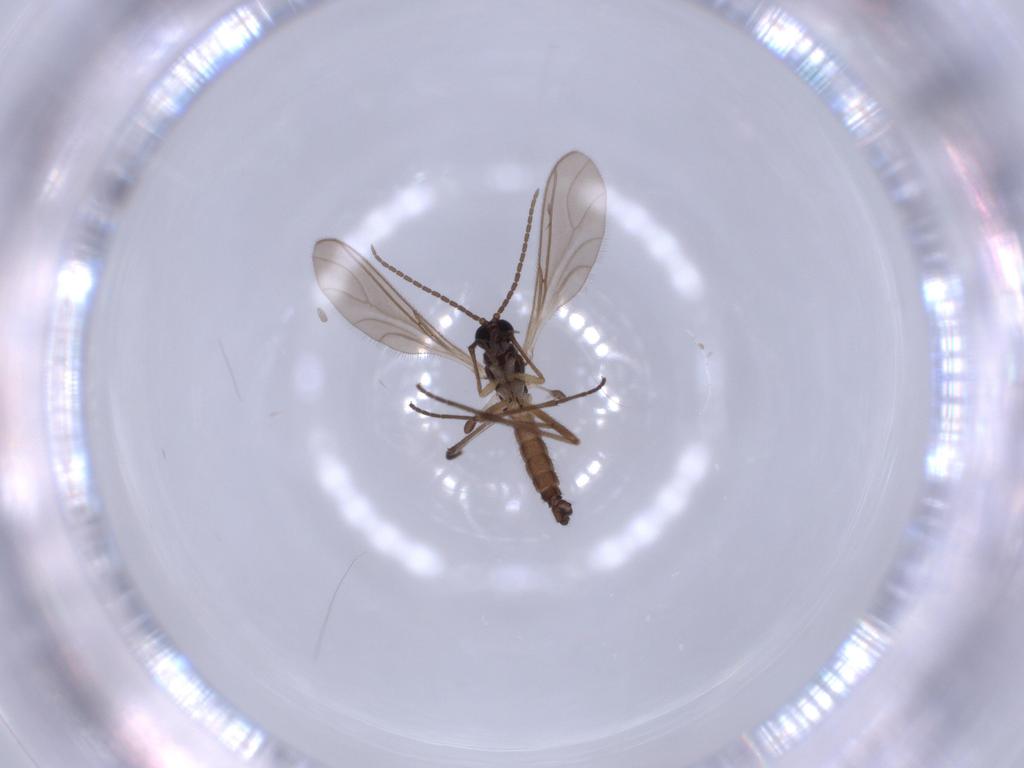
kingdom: Animalia
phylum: Arthropoda
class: Insecta
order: Diptera
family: Sciaridae
